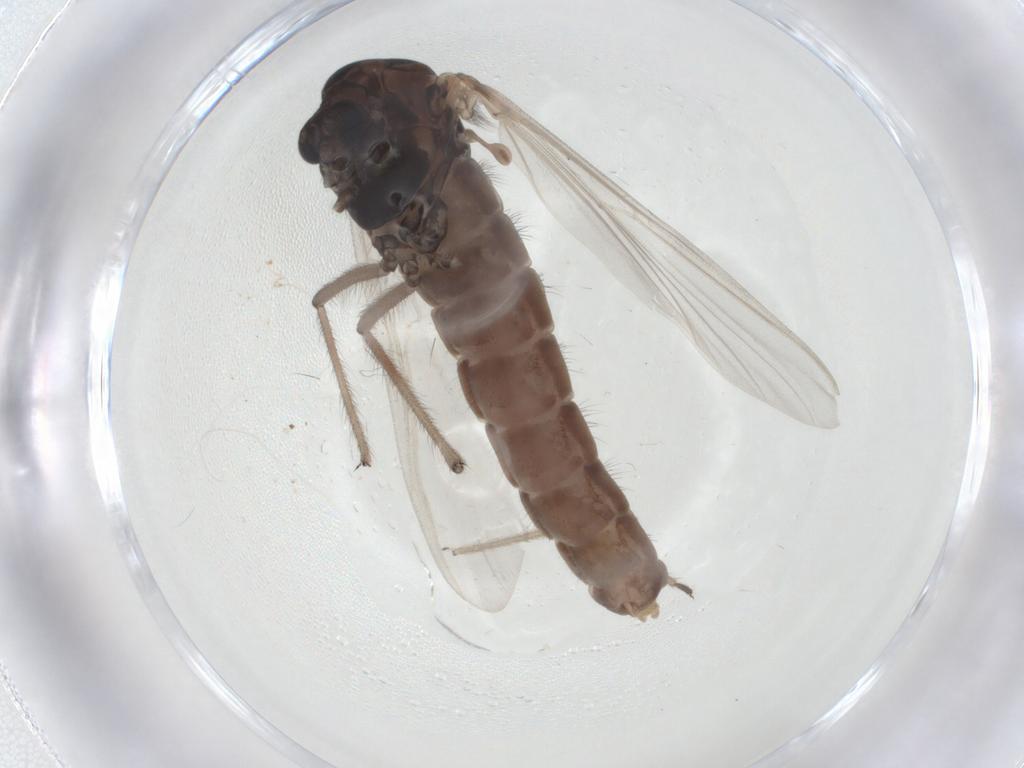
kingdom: Animalia
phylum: Arthropoda
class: Insecta
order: Diptera
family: Chironomidae
